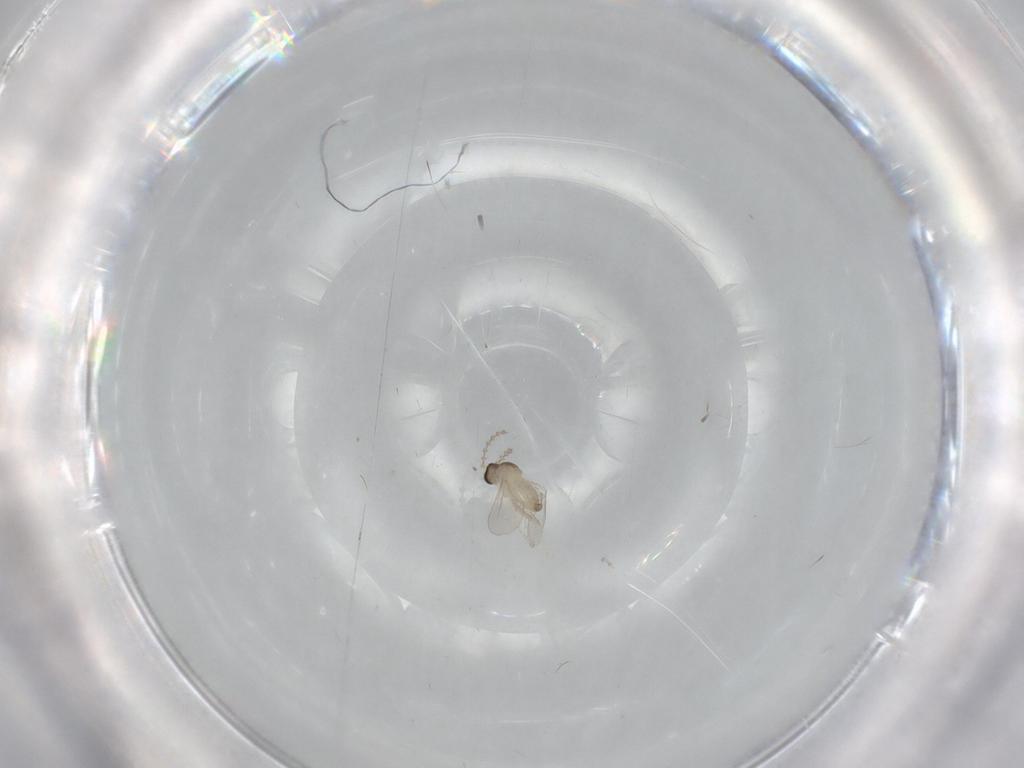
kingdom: Animalia
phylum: Arthropoda
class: Insecta
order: Diptera
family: Cecidomyiidae
